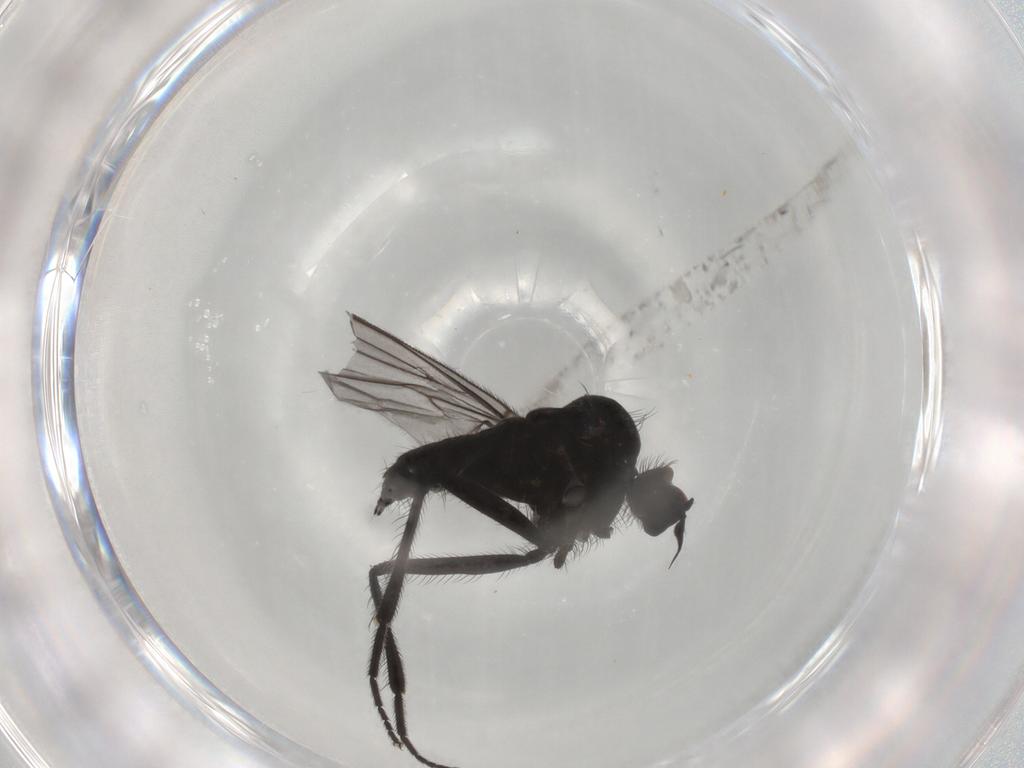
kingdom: Animalia
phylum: Arthropoda
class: Insecta
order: Diptera
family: Hybotidae
